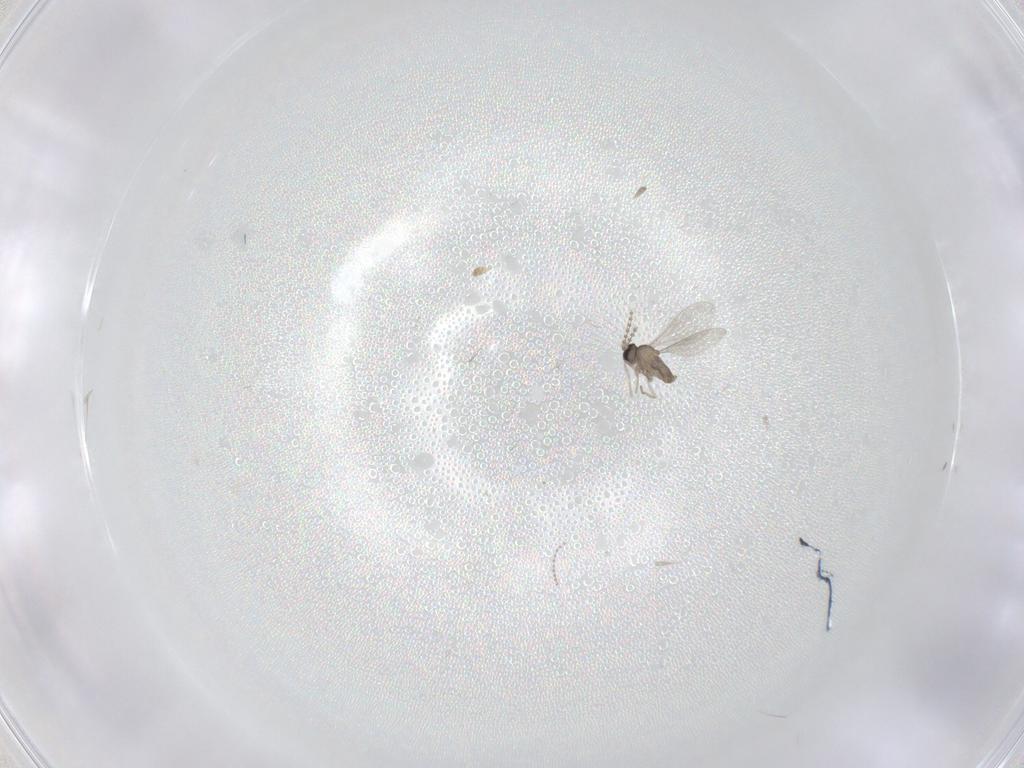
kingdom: Animalia
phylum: Arthropoda
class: Insecta
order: Diptera
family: Cecidomyiidae
